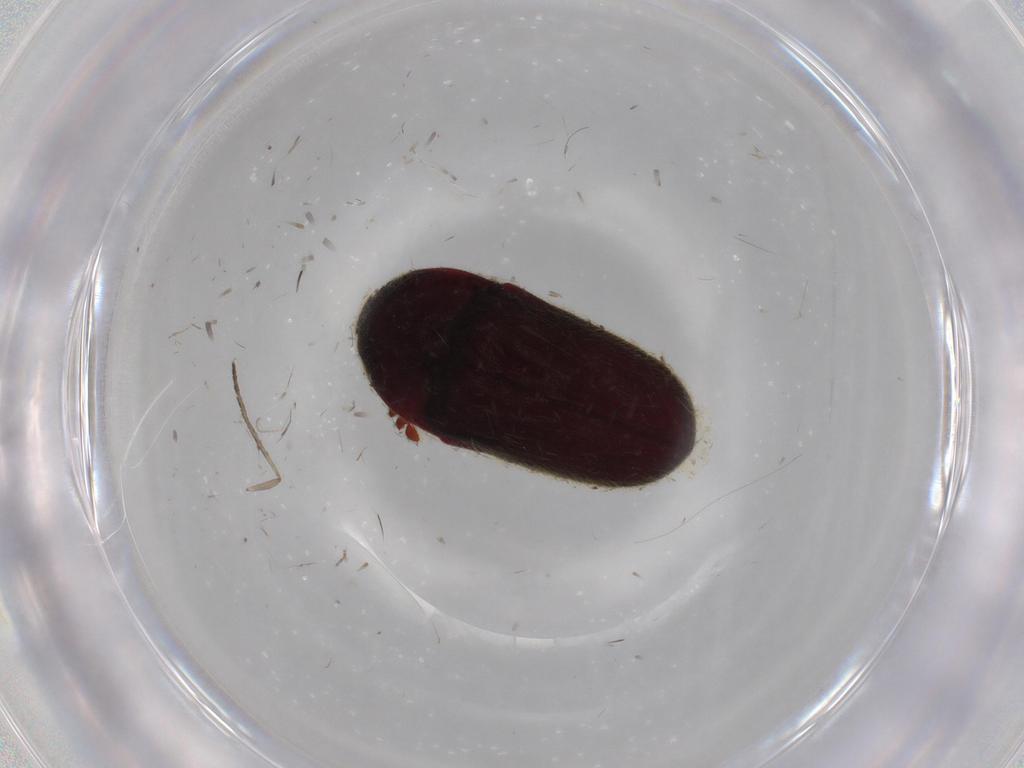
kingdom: Animalia
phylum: Arthropoda
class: Insecta
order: Coleoptera
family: Throscidae
